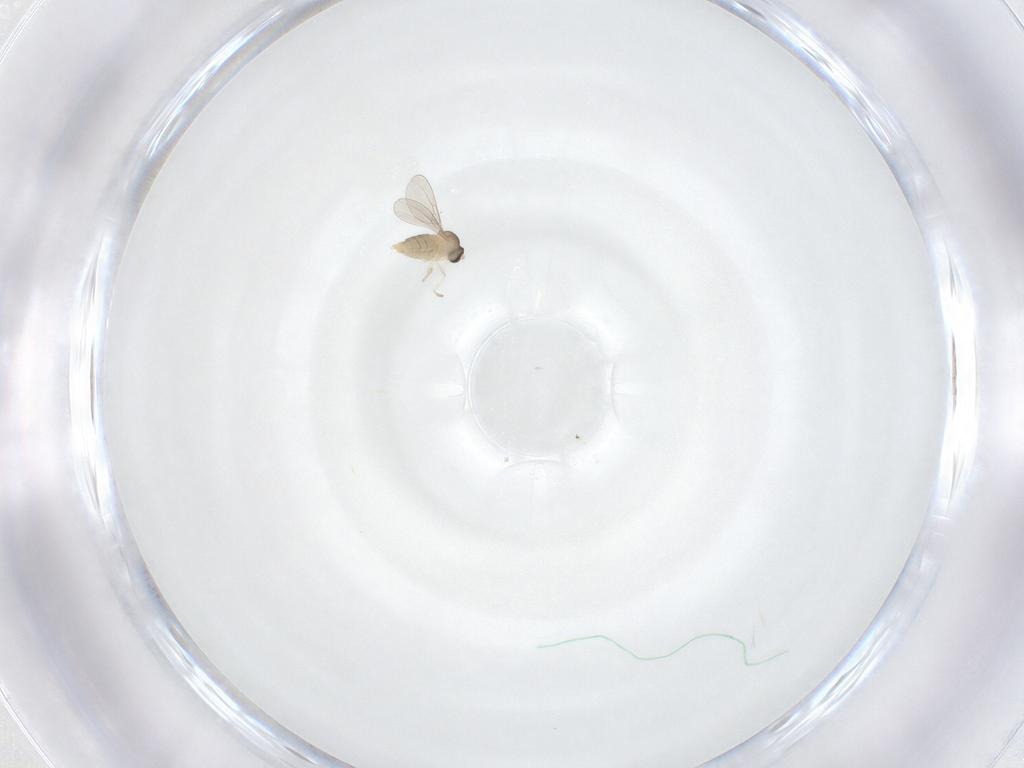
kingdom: Animalia
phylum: Arthropoda
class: Insecta
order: Diptera
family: Cecidomyiidae
